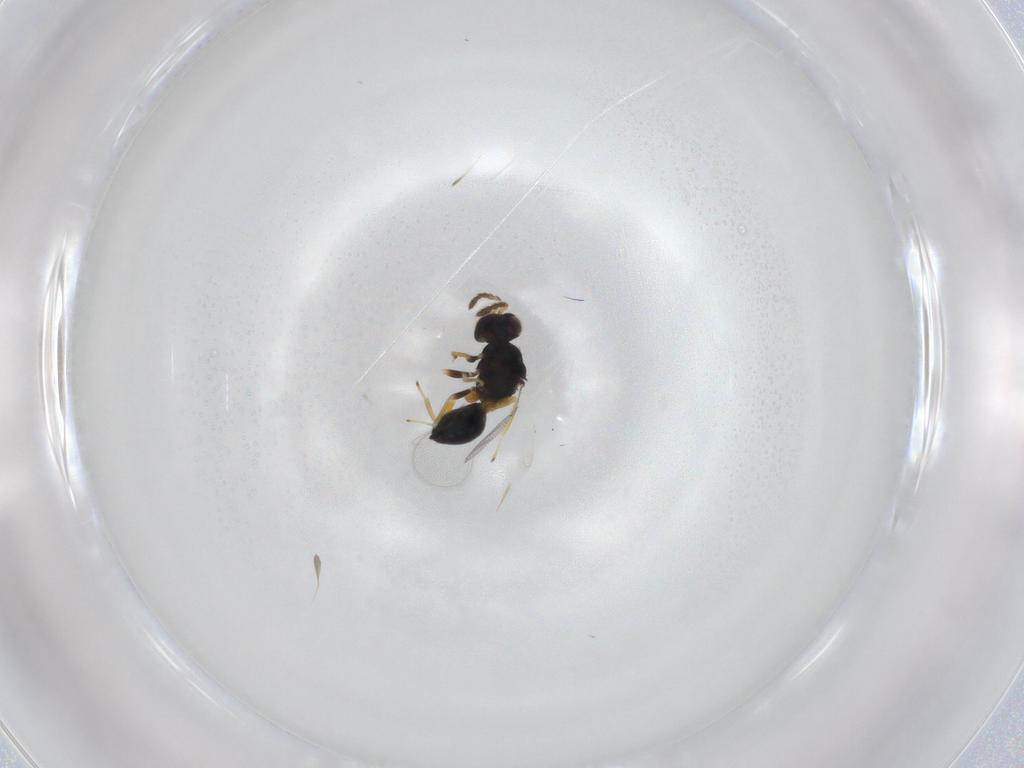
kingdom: Animalia
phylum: Arthropoda
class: Insecta
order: Hymenoptera
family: Eulophidae
